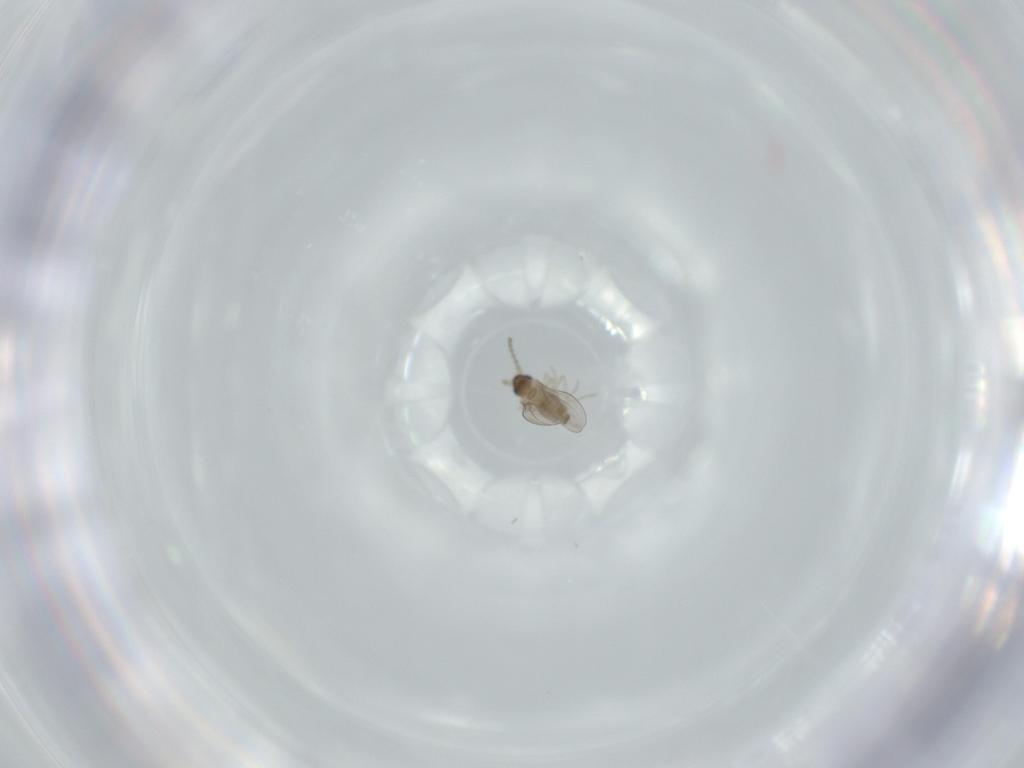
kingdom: Animalia
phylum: Arthropoda
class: Insecta
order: Diptera
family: Cecidomyiidae
